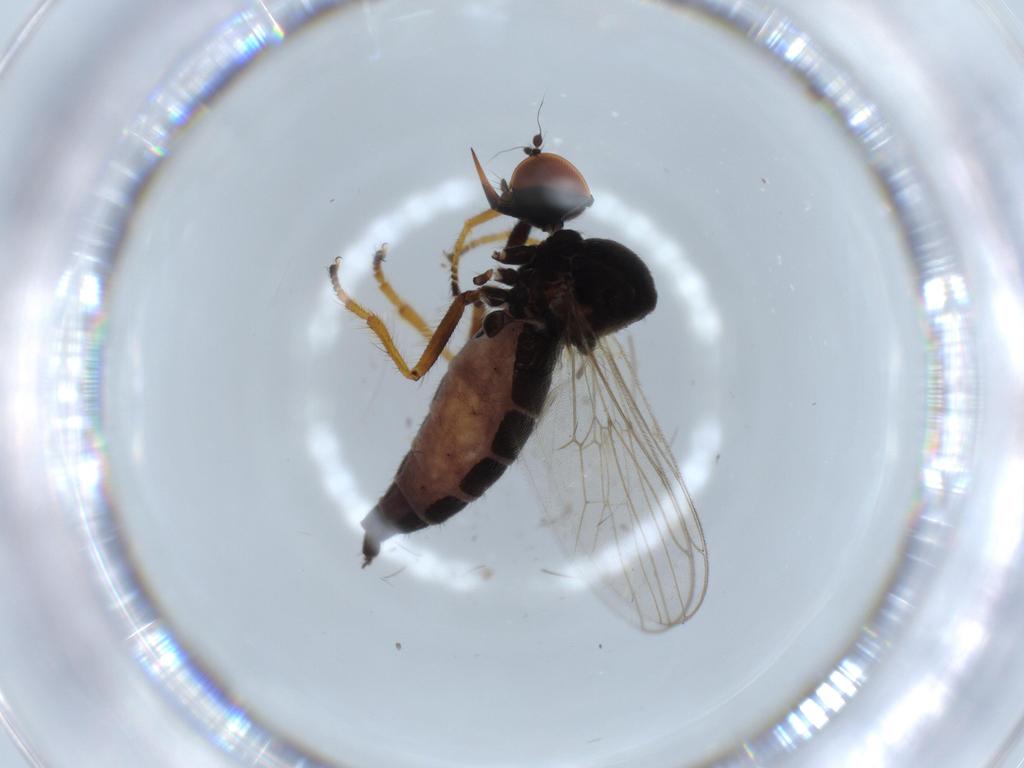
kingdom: Animalia
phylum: Arthropoda
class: Insecta
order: Diptera
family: Cecidomyiidae
